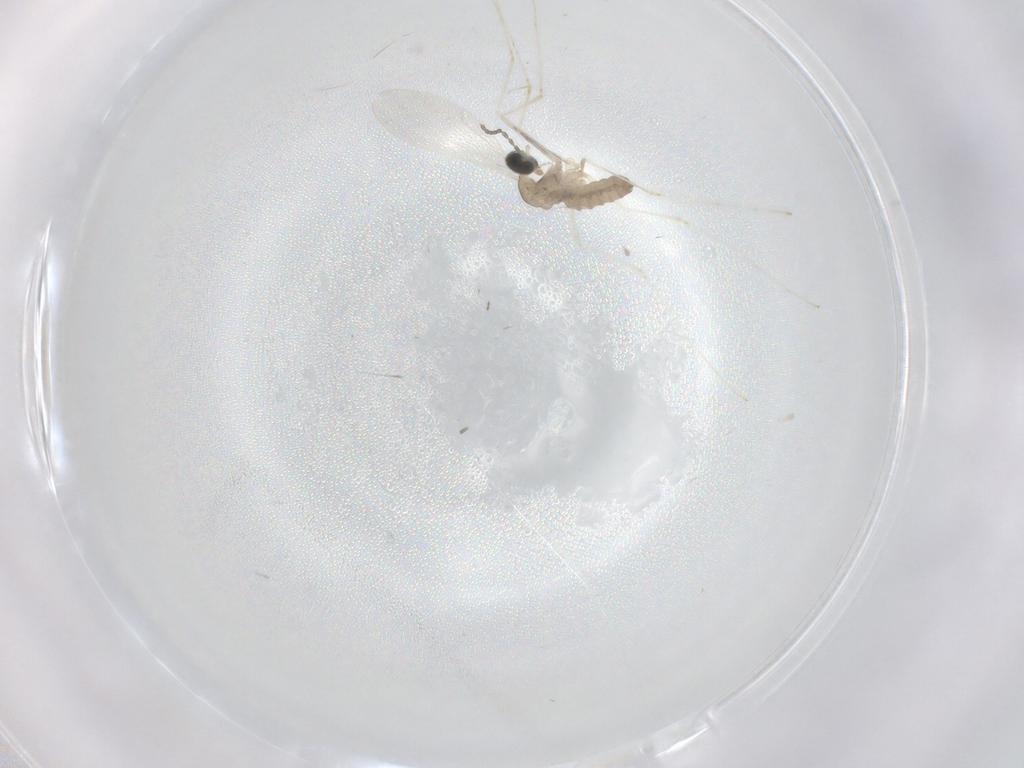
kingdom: Animalia
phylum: Arthropoda
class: Insecta
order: Diptera
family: Cecidomyiidae
